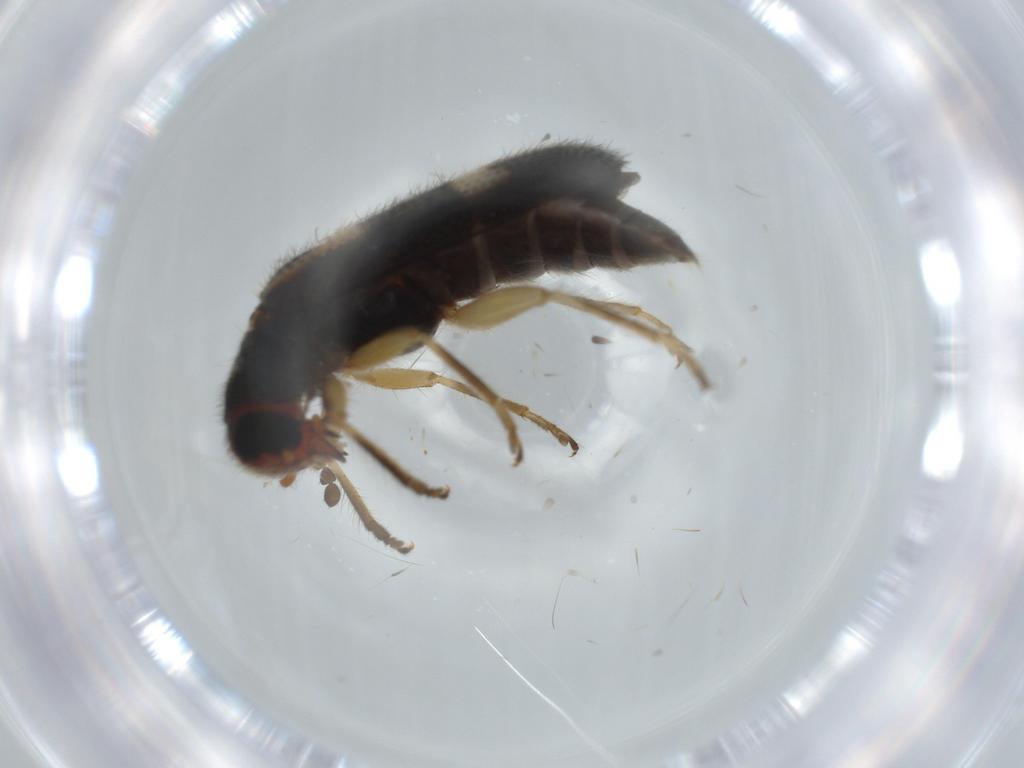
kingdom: Animalia
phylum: Arthropoda
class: Insecta
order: Coleoptera
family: Cleridae
